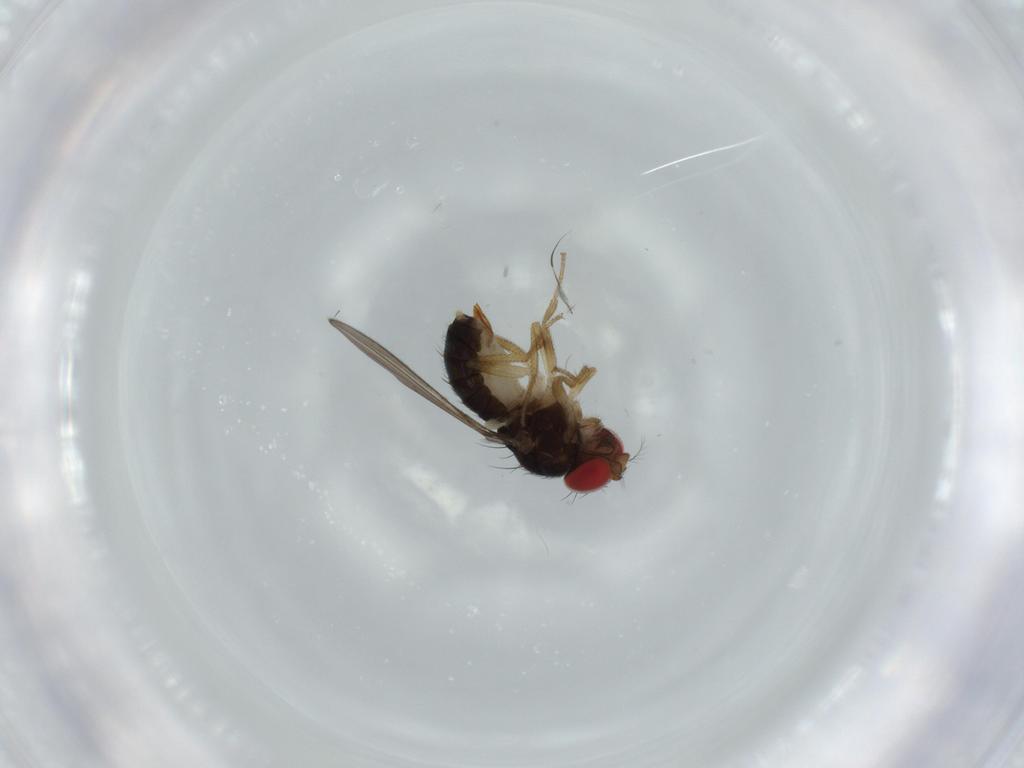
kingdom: Animalia
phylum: Arthropoda
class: Insecta
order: Diptera
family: Drosophilidae
